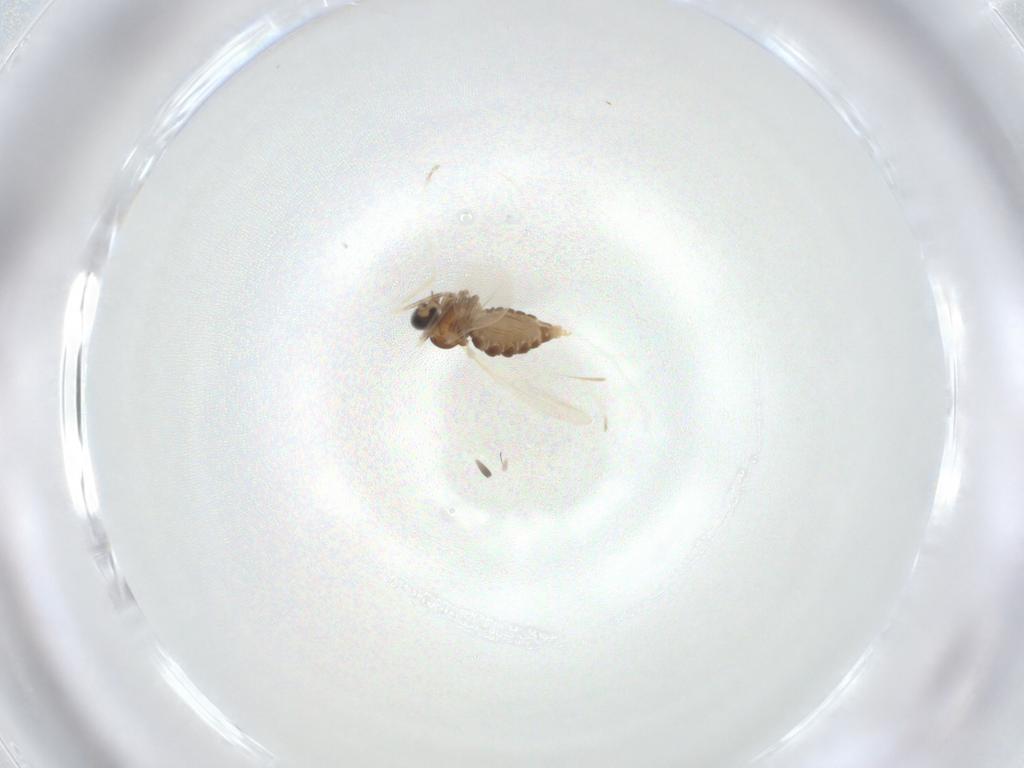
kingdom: Animalia
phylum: Arthropoda
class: Insecta
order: Diptera
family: Cecidomyiidae
